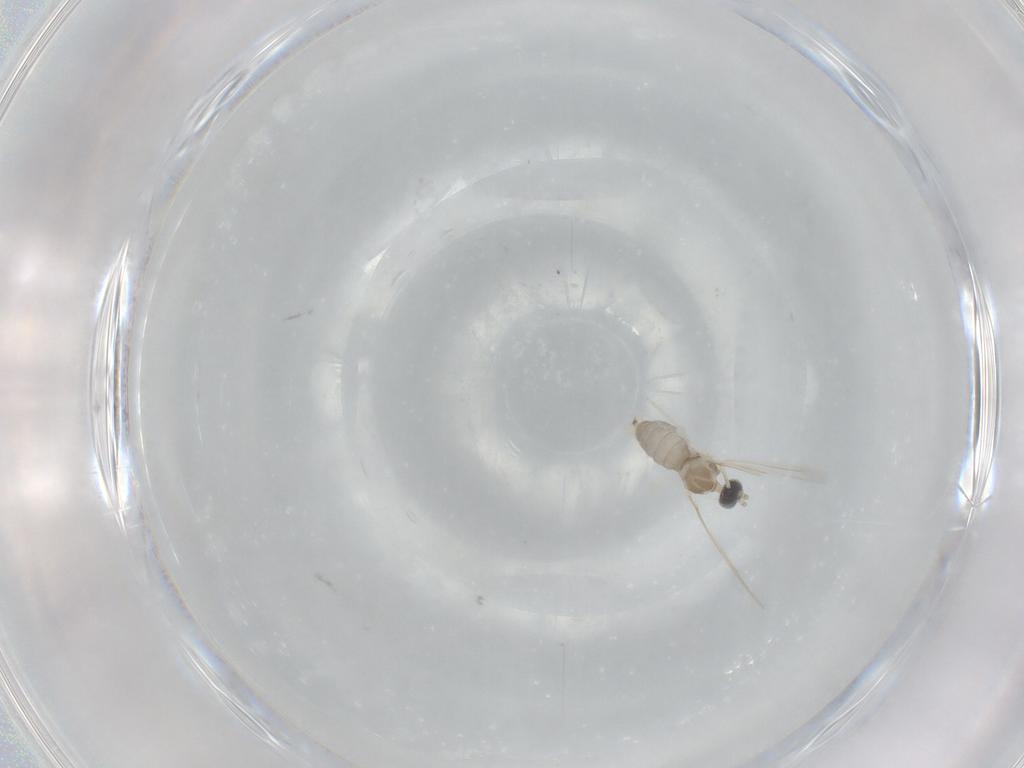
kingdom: Animalia
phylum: Arthropoda
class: Insecta
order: Diptera
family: Cecidomyiidae
